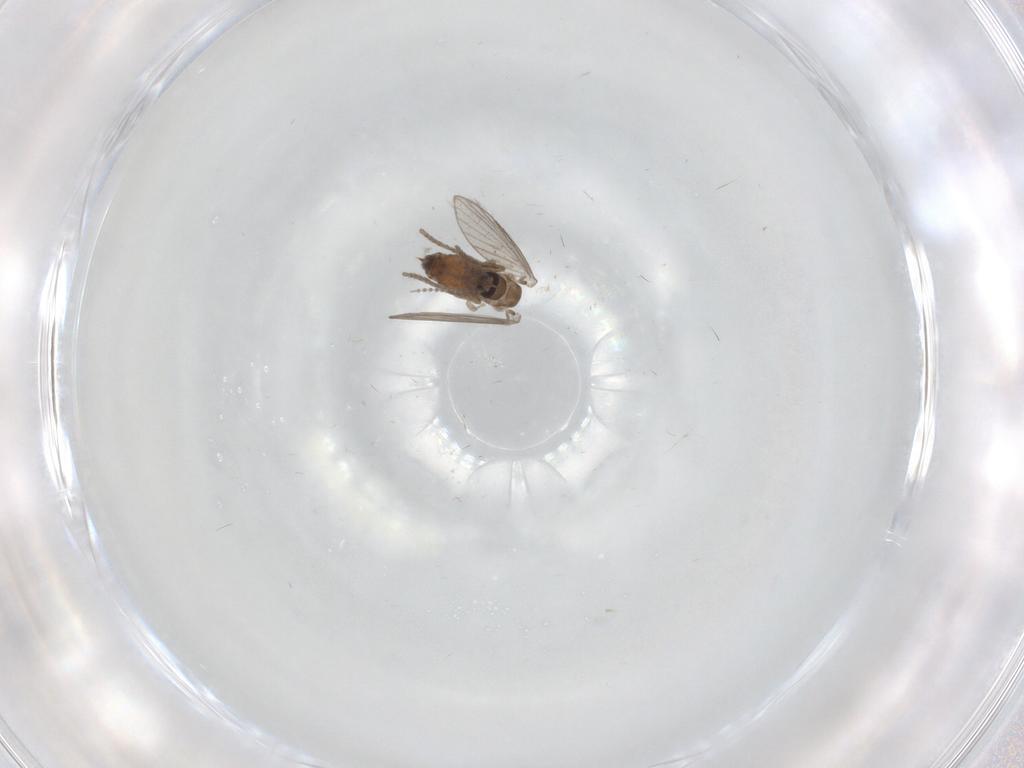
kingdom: Animalia
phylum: Arthropoda
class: Insecta
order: Diptera
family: Psychodidae
